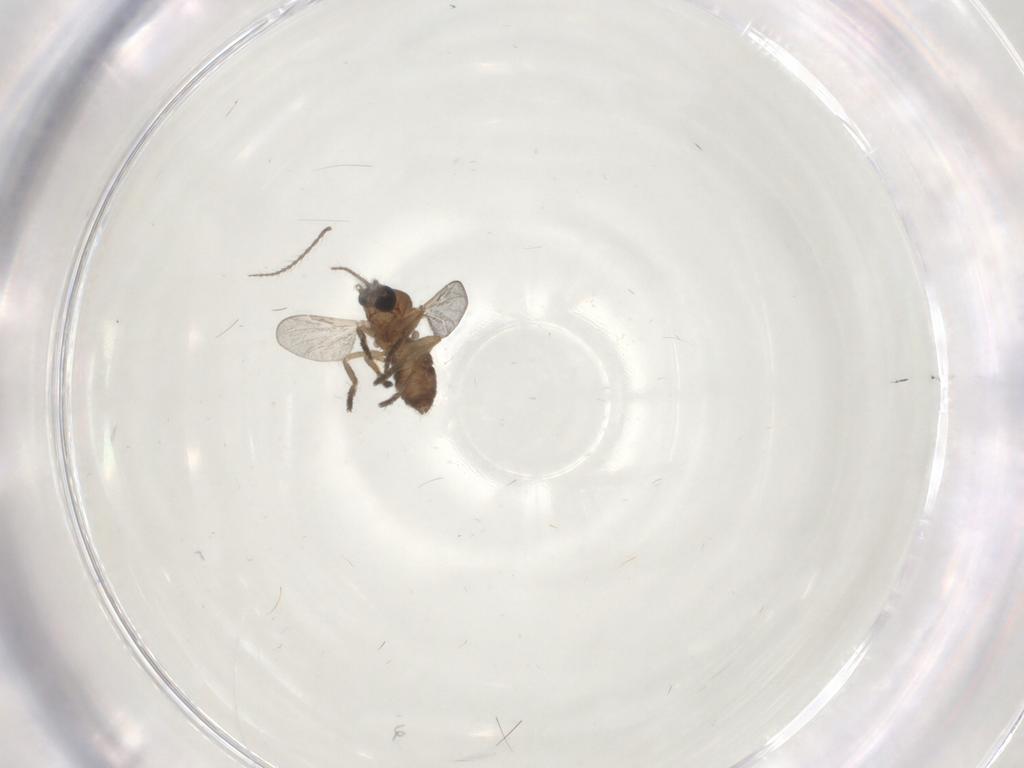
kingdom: Animalia
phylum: Arthropoda
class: Insecta
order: Diptera
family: Ceratopogonidae
